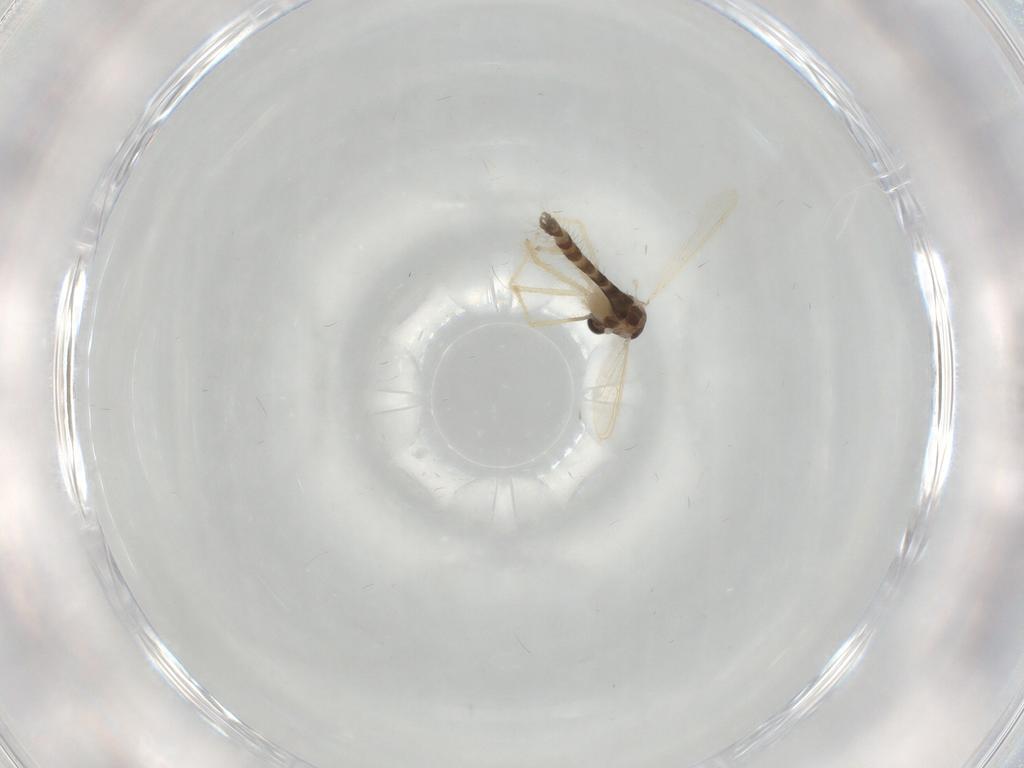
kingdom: Animalia
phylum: Arthropoda
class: Insecta
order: Diptera
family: Chironomidae
